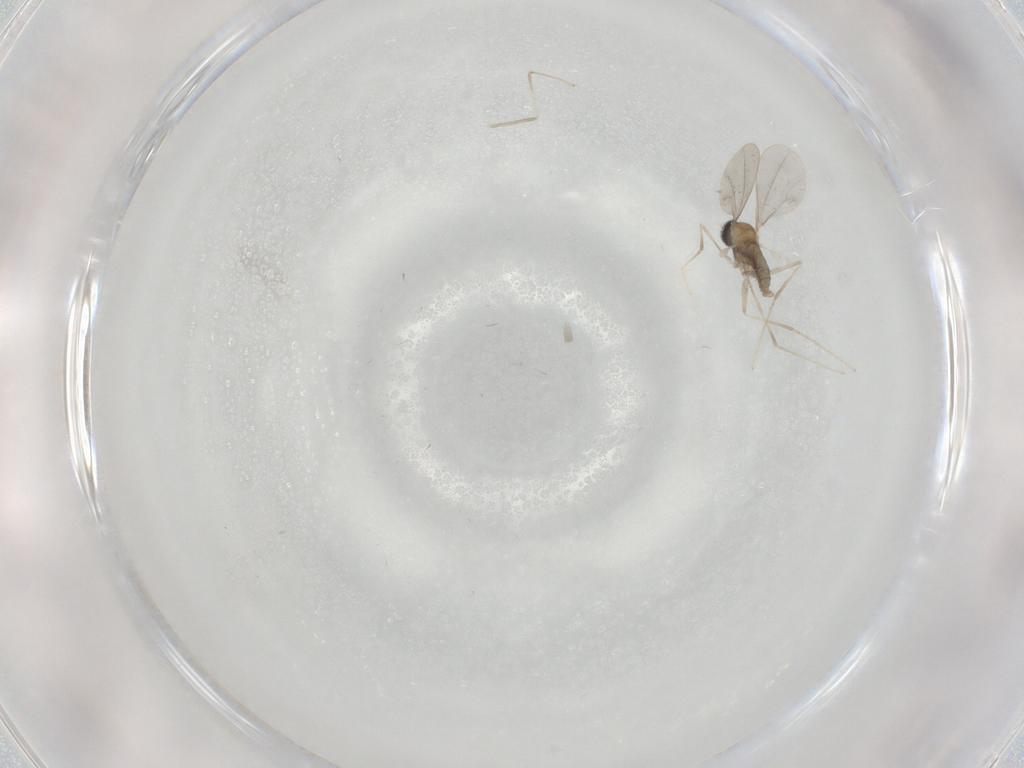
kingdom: Animalia
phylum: Arthropoda
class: Insecta
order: Diptera
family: Cecidomyiidae
